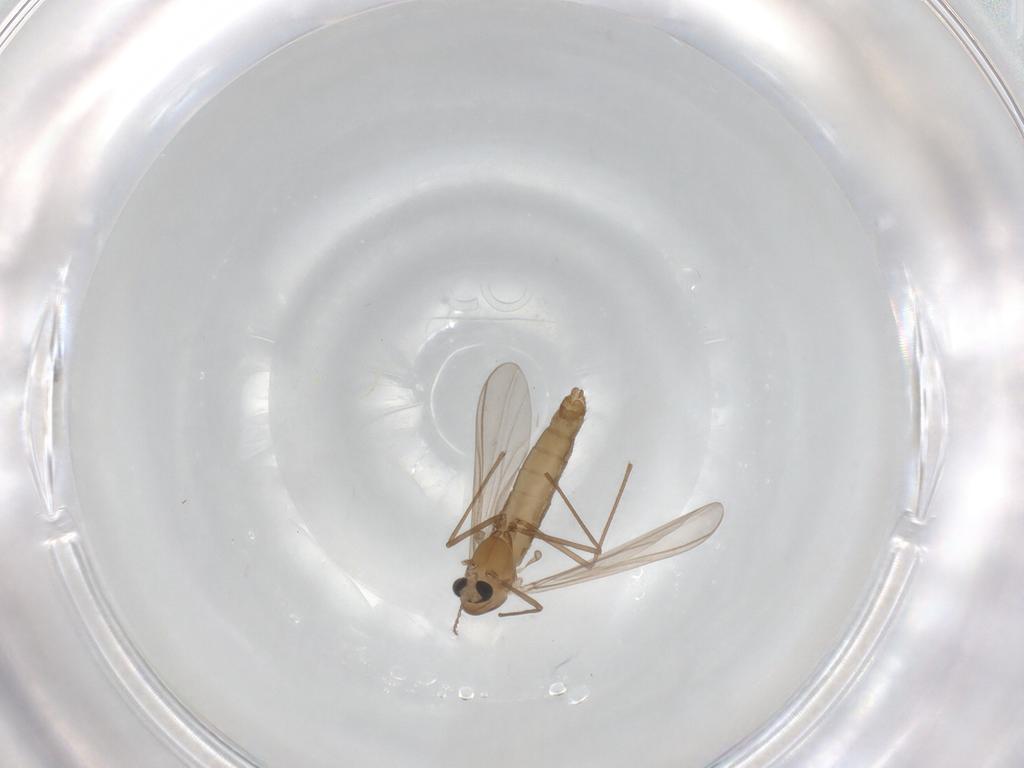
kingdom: Animalia
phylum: Arthropoda
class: Insecta
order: Diptera
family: Chironomidae
